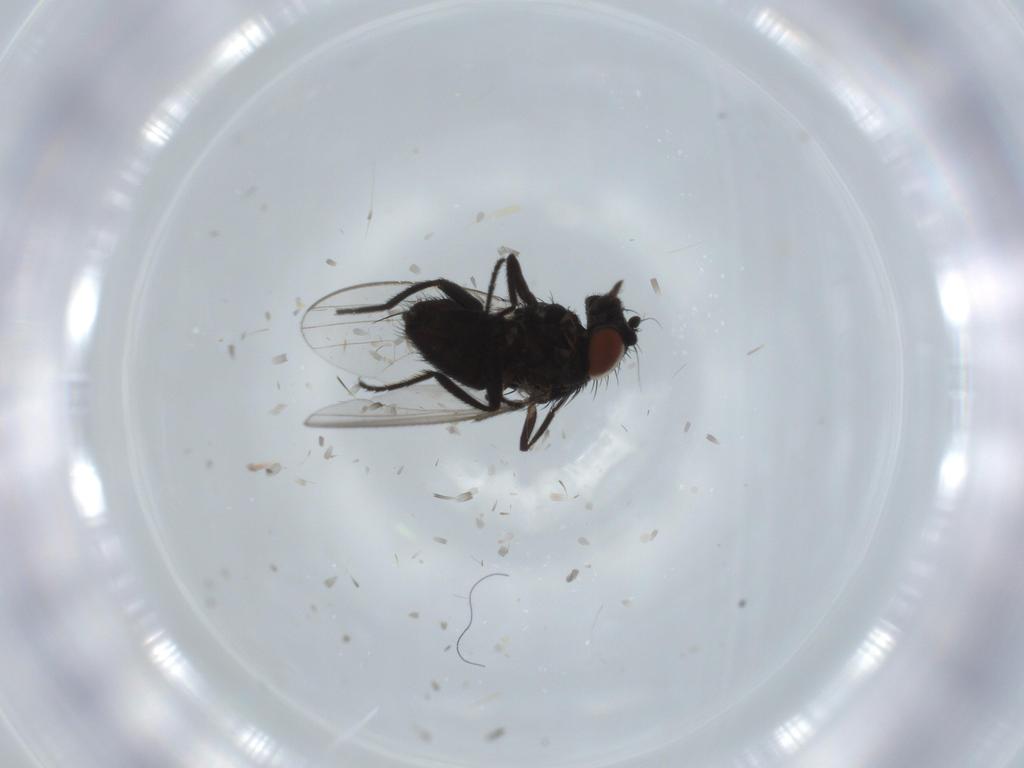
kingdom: Animalia
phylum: Arthropoda
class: Insecta
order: Diptera
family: Milichiidae
